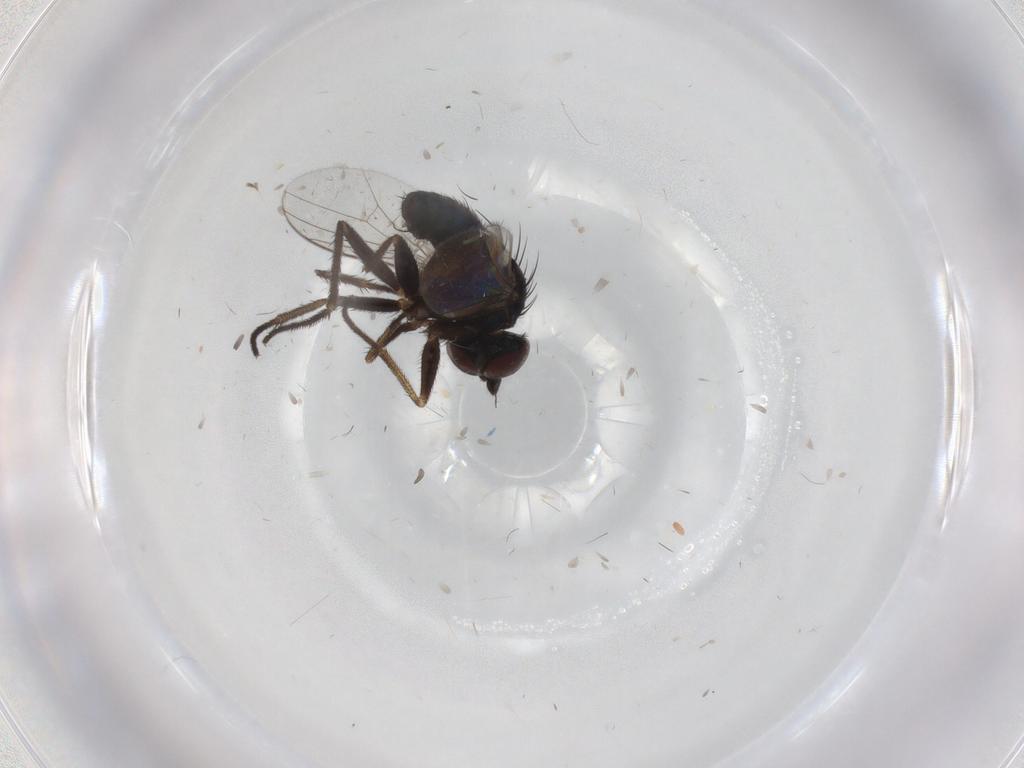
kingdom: Animalia
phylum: Arthropoda
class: Insecta
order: Diptera
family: Dolichopodidae
